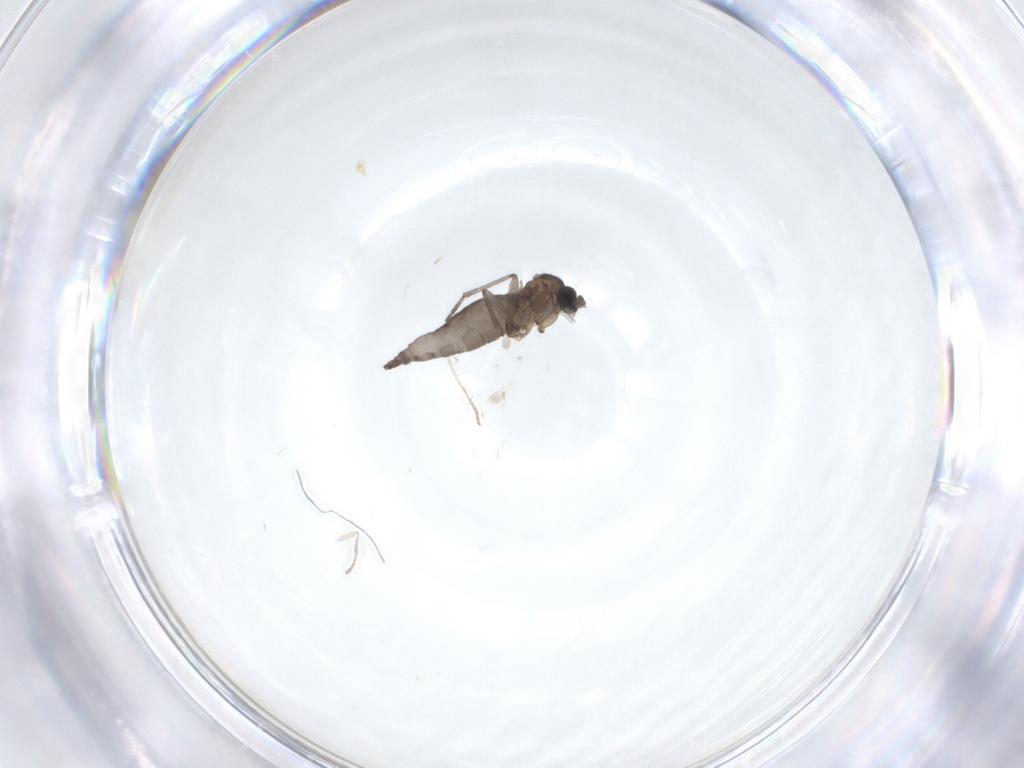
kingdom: Animalia
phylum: Arthropoda
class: Insecta
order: Diptera
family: Psychodidae
